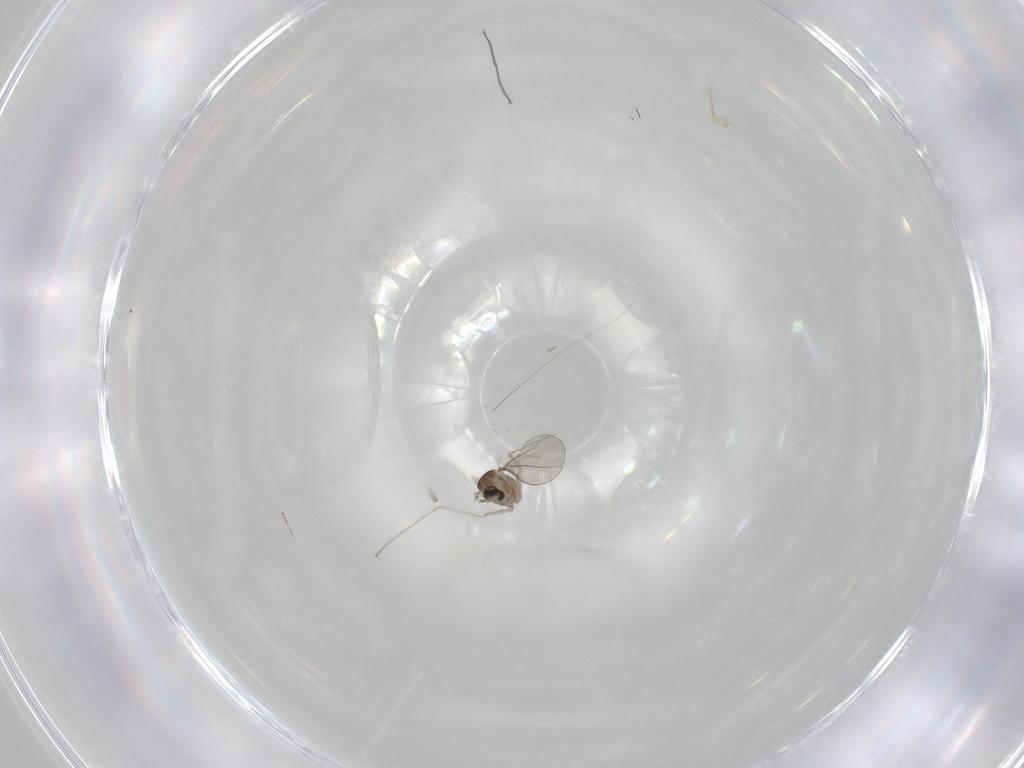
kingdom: Animalia
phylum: Arthropoda
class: Insecta
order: Diptera
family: Cecidomyiidae
